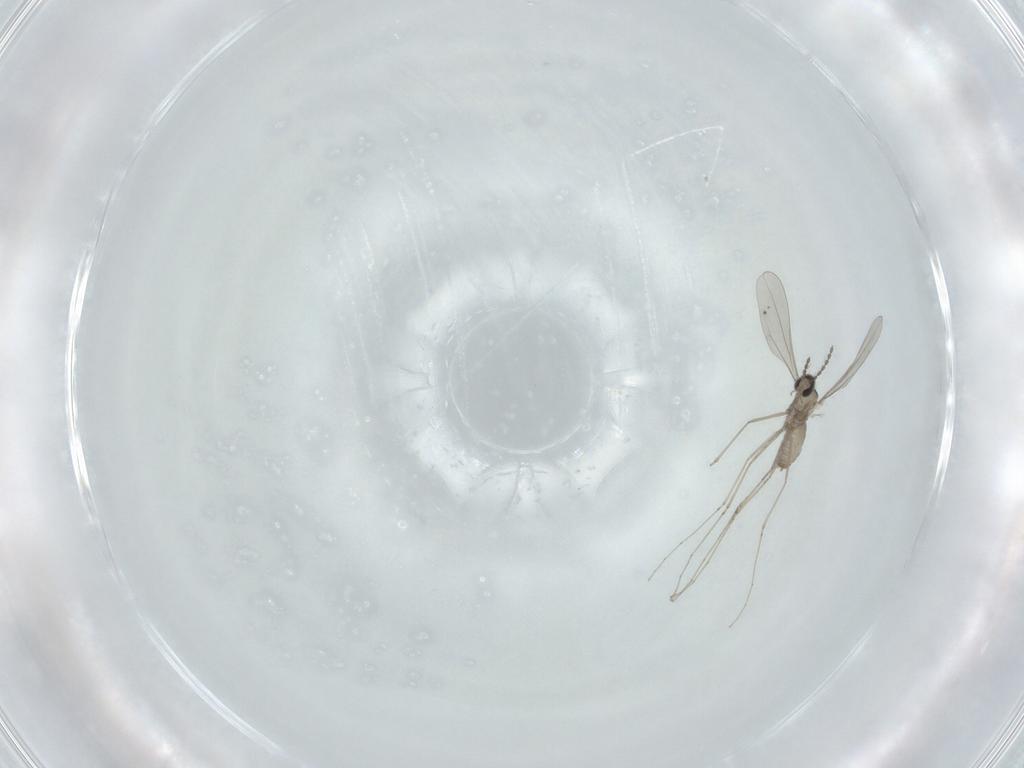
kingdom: Animalia
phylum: Arthropoda
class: Insecta
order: Diptera
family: Cecidomyiidae
